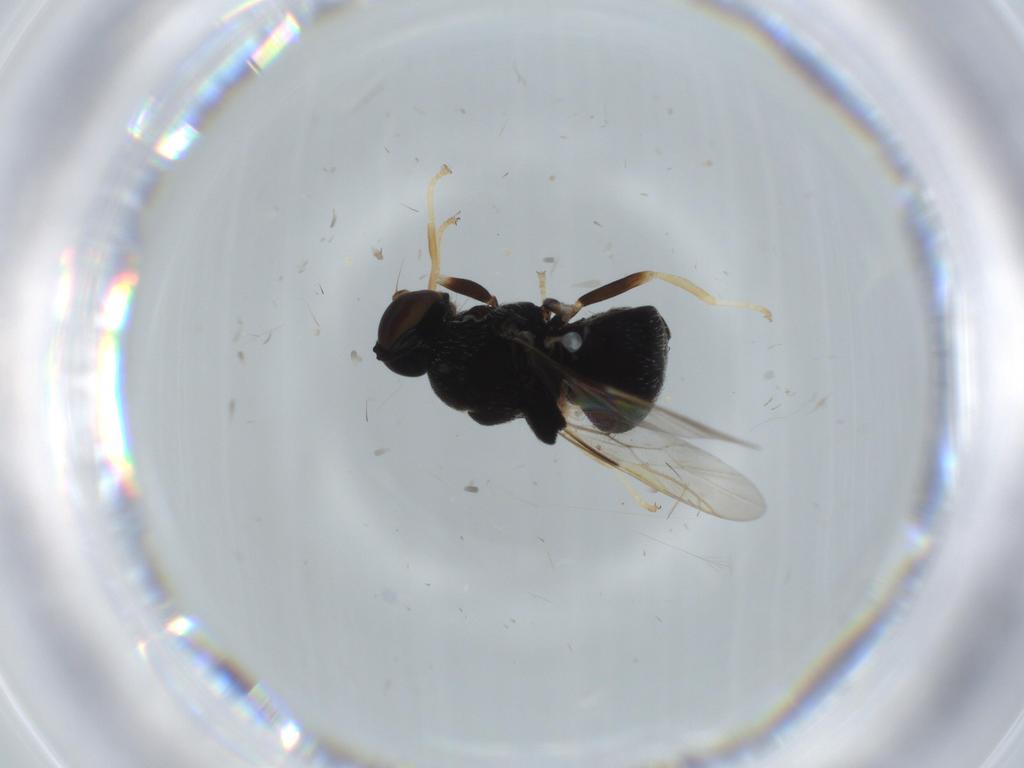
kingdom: Animalia
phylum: Arthropoda
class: Insecta
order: Diptera
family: Stratiomyidae
